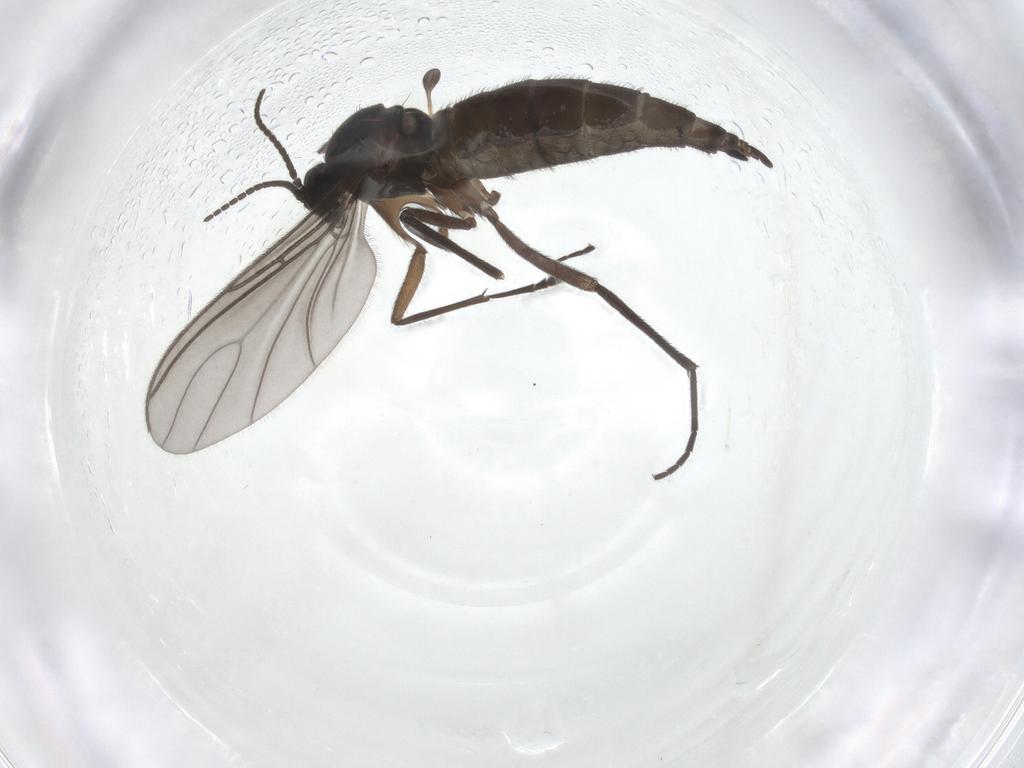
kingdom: Animalia
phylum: Arthropoda
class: Insecta
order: Diptera
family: Sciaridae
